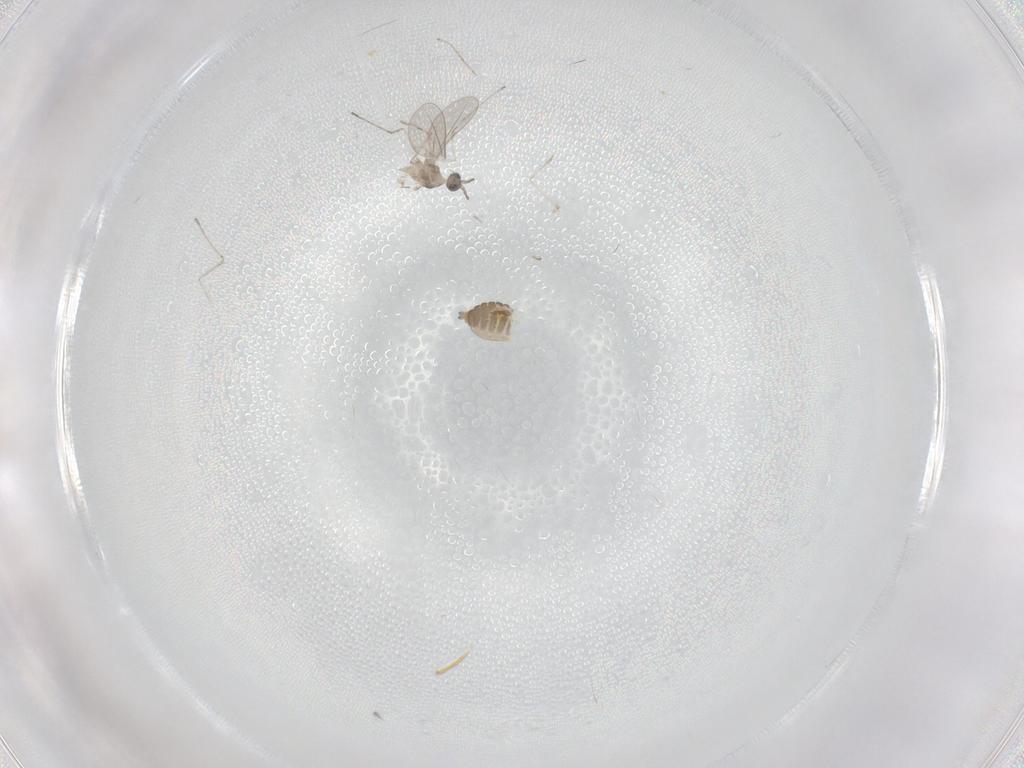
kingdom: Animalia
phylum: Arthropoda
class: Insecta
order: Diptera
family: Cecidomyiidae
